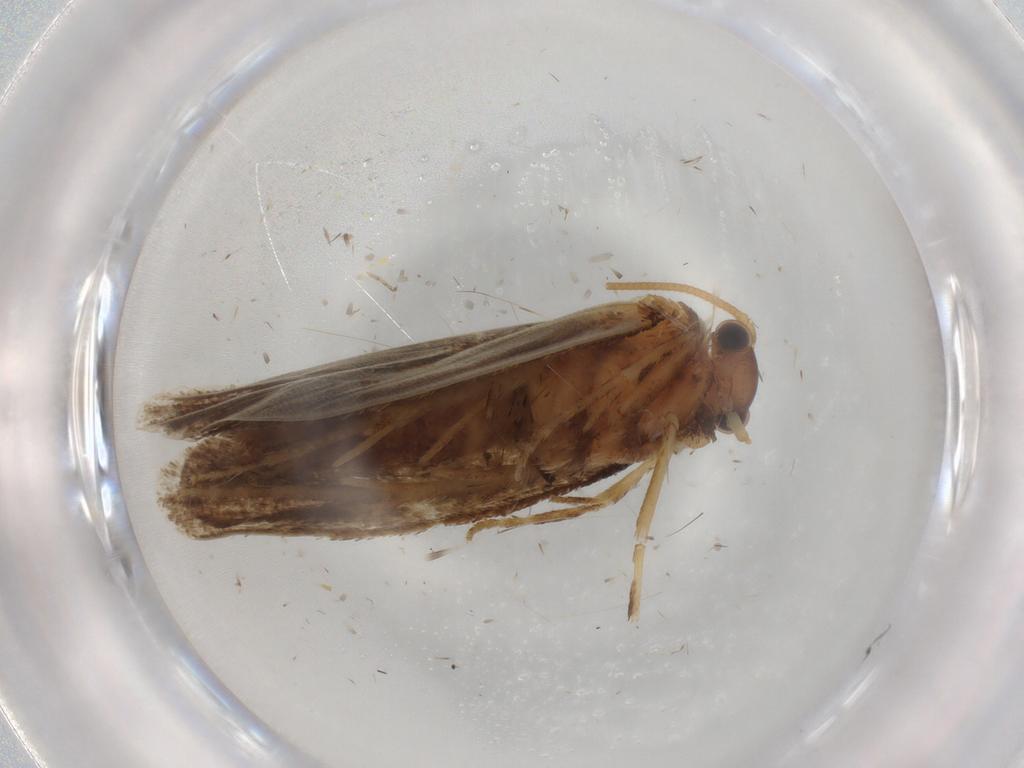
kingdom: Animalia
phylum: Arthropoda
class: Insecta
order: Lepidoptera
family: Nepticulidae
